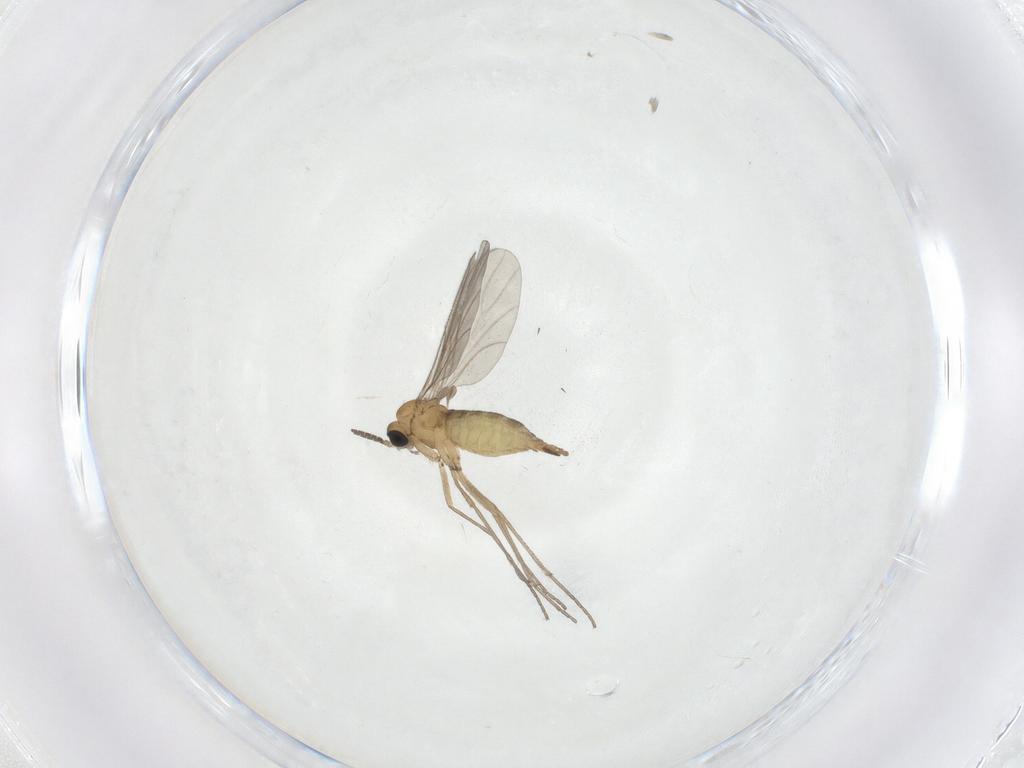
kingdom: Animalia
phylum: Arthropoda
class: Insecta
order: Diptera
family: Sciaridae
